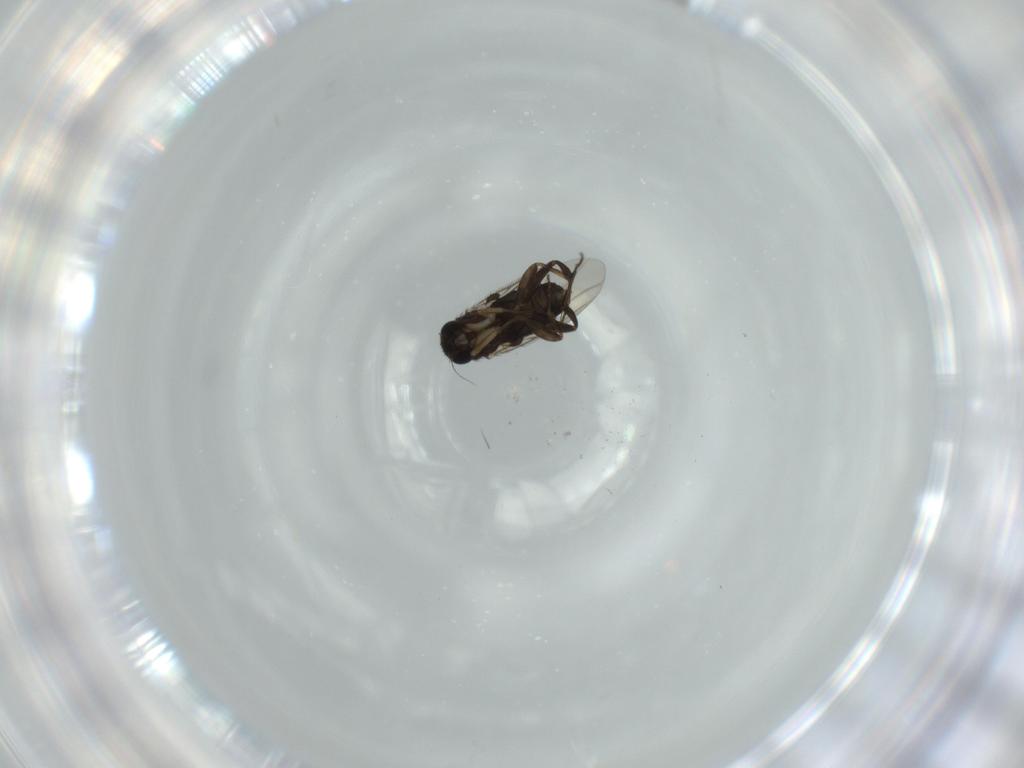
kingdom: Animalia
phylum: Arthropoda
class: Insecta
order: Diptera
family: Phoridae
